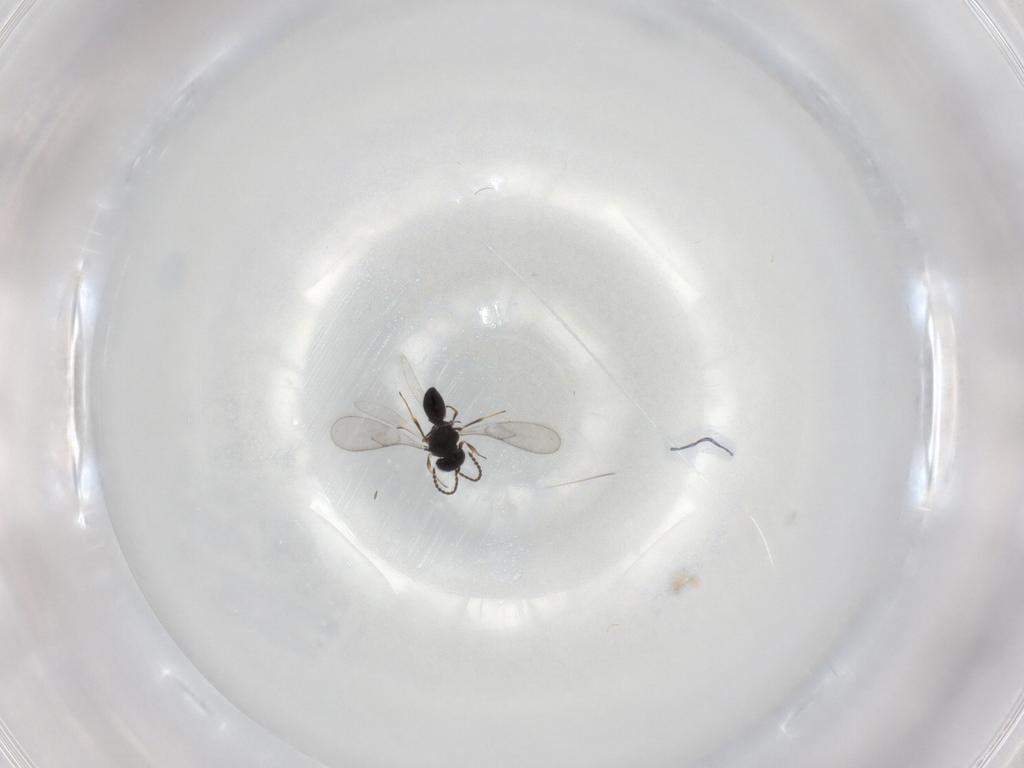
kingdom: Animalia
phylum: Arthropoda
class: Insecta
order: Hymenoptera
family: Scelionidae
